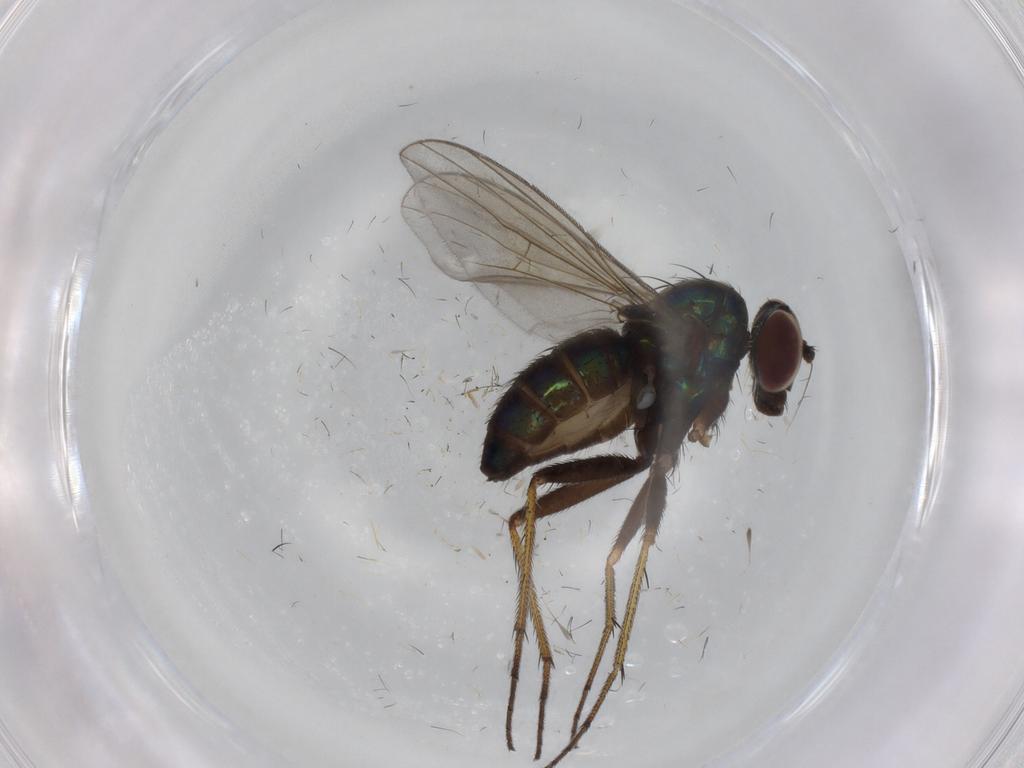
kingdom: Animalia
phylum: Arthropoda
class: Insecta
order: Diptera
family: Dolichopodidae
